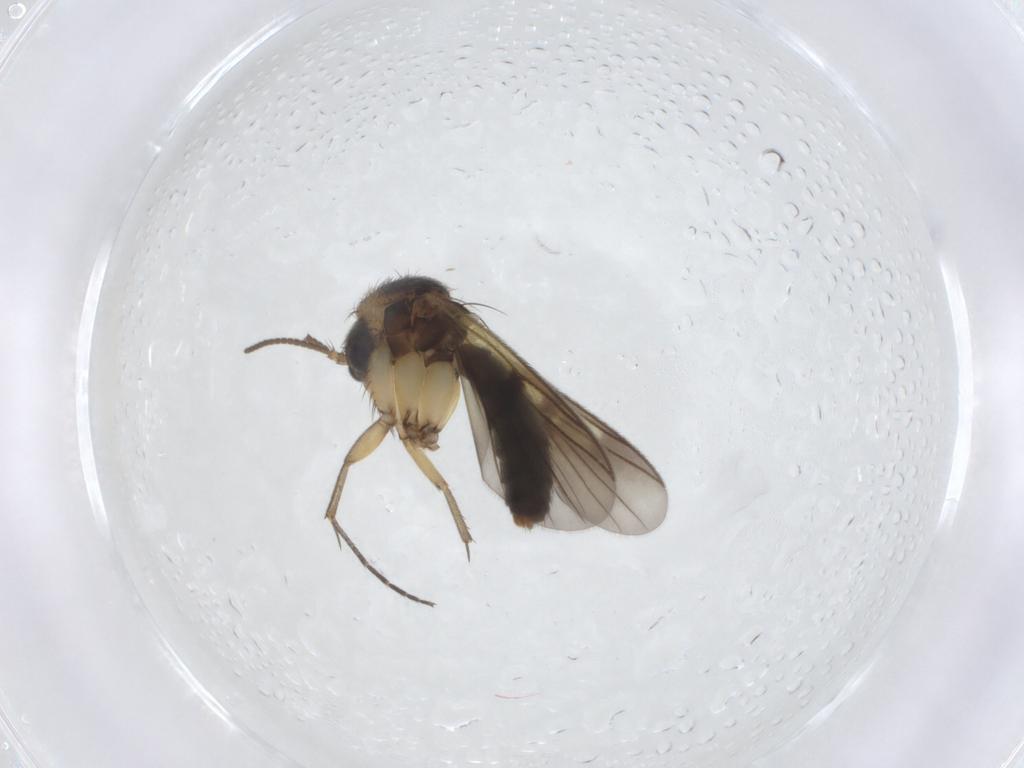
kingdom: Animalia
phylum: Arthropoda
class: Insecta
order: Diptera
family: Mycetophilidae
